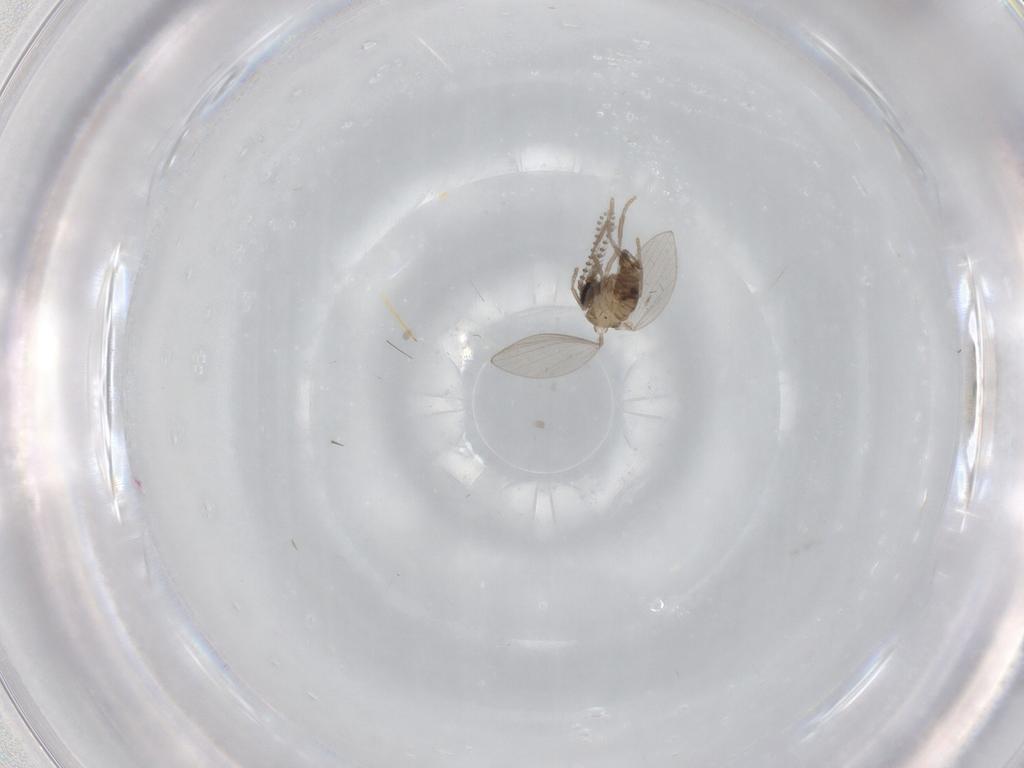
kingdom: Animalia
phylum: Arthropoda
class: Insecta
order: Diptera
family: Psychodidae
